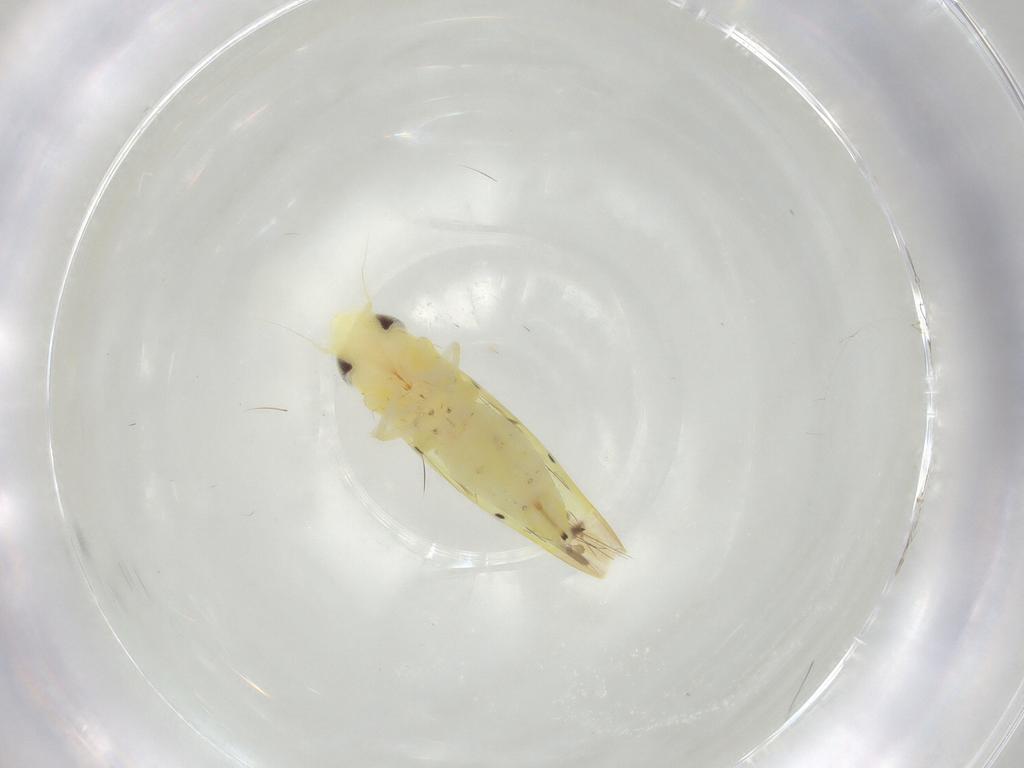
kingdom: Animalia
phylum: Arthropoda
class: Insecta
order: Hemiptera
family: Cicadellidae
